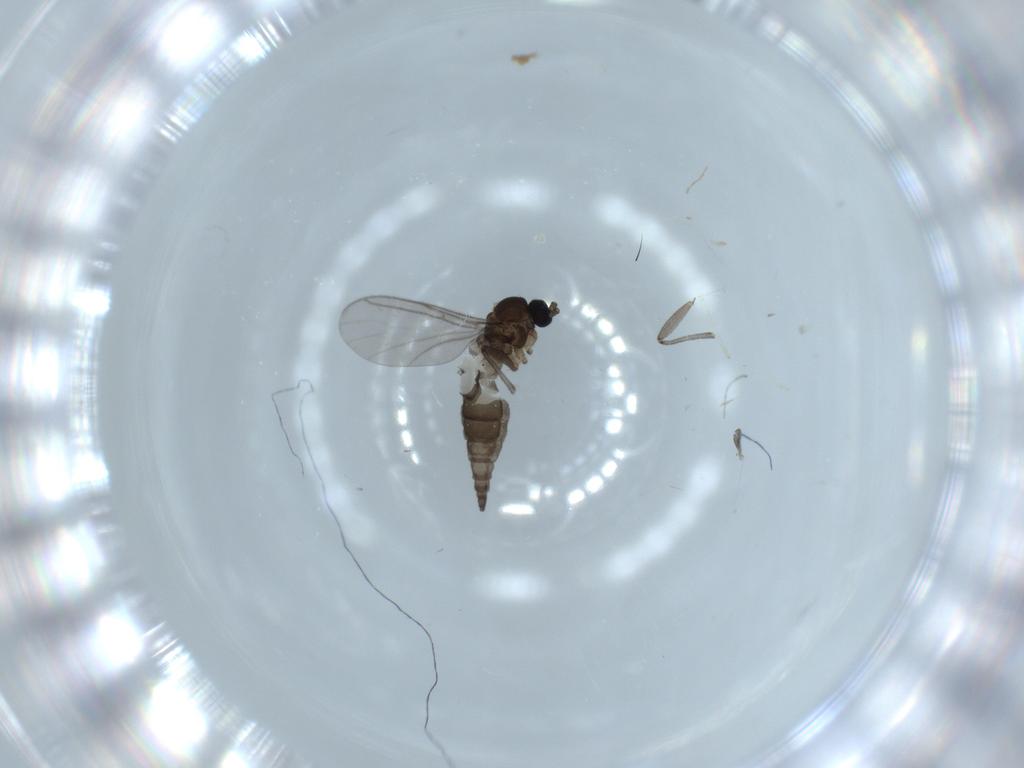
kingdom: Animalia
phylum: Arthropoda
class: Insecta
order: Diptera
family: Cecidomyiidae
